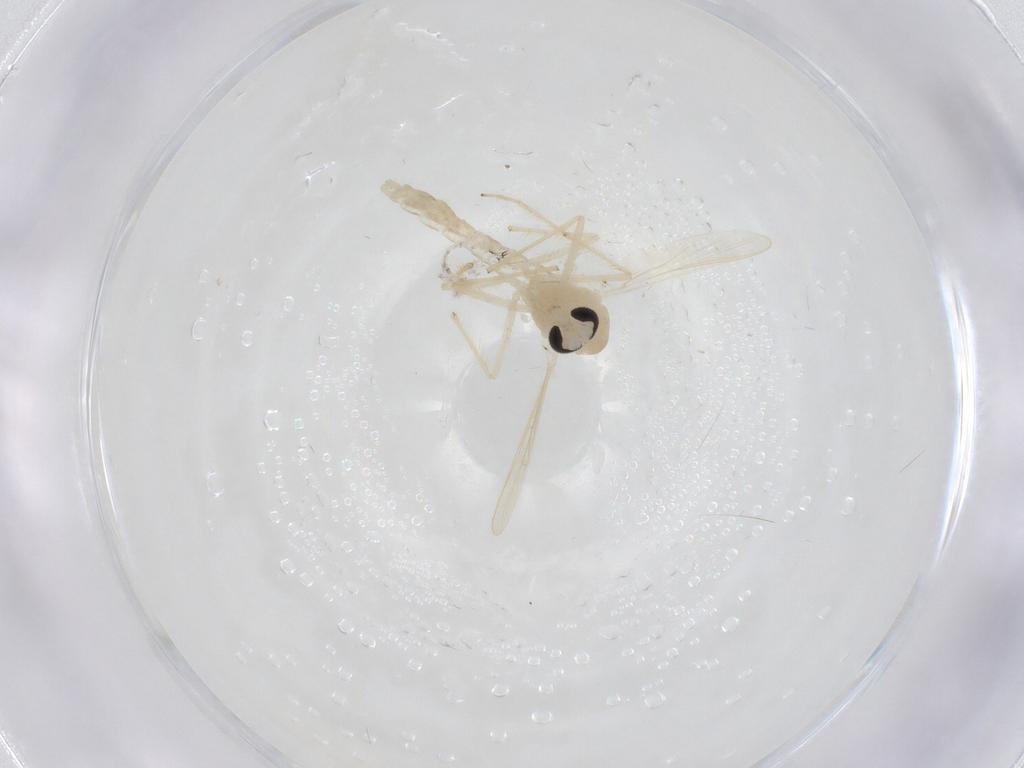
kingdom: Animalia
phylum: Arthropoda
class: Insecta
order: Diptera
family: Chironomidae
